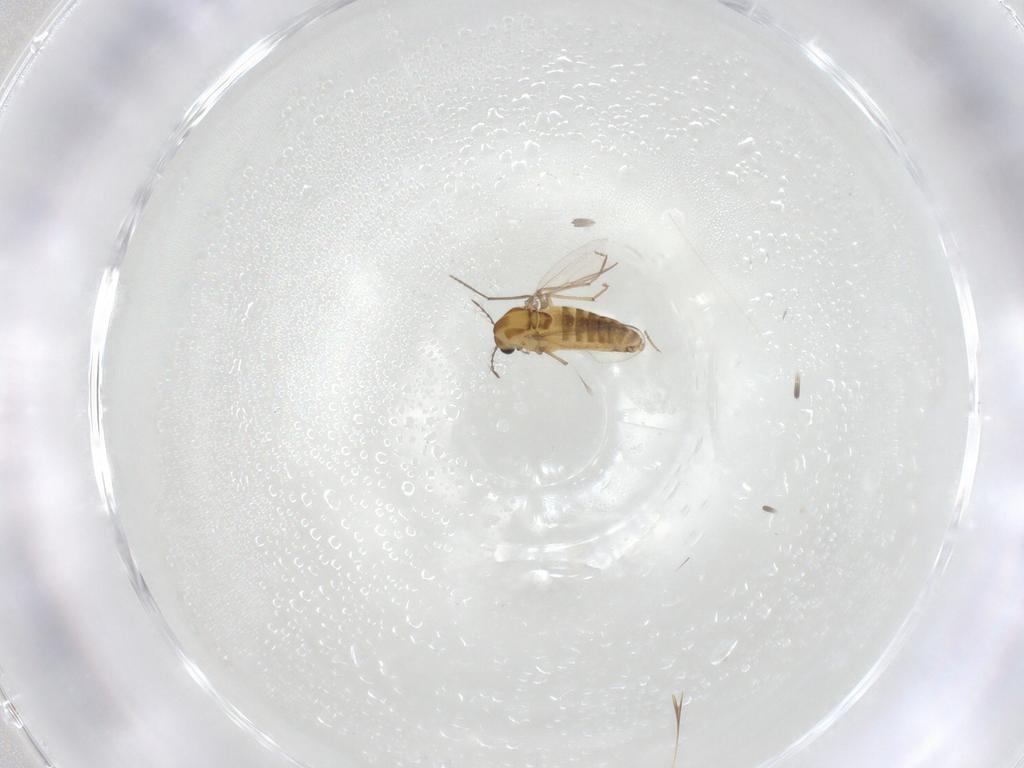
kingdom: Animalia
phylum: Arthropoda
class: Insecta
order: Diptera
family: Chironomidae
